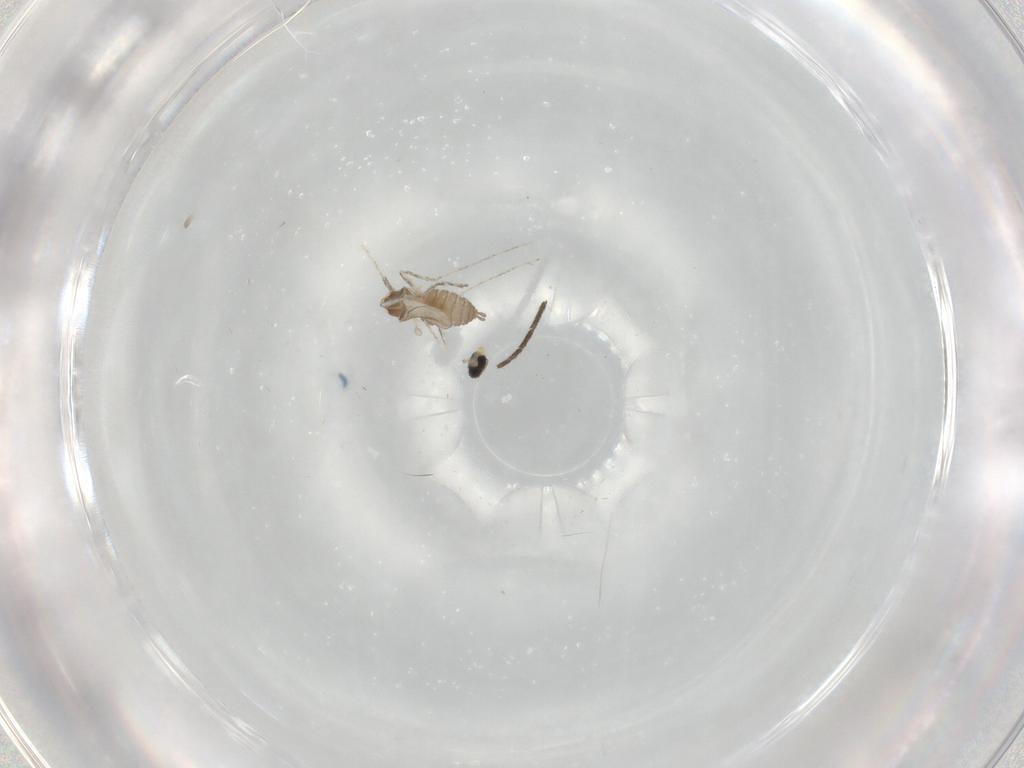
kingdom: Animalia
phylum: Arthropoda
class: Insecta
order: Diptera
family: Cecidomyiidae
